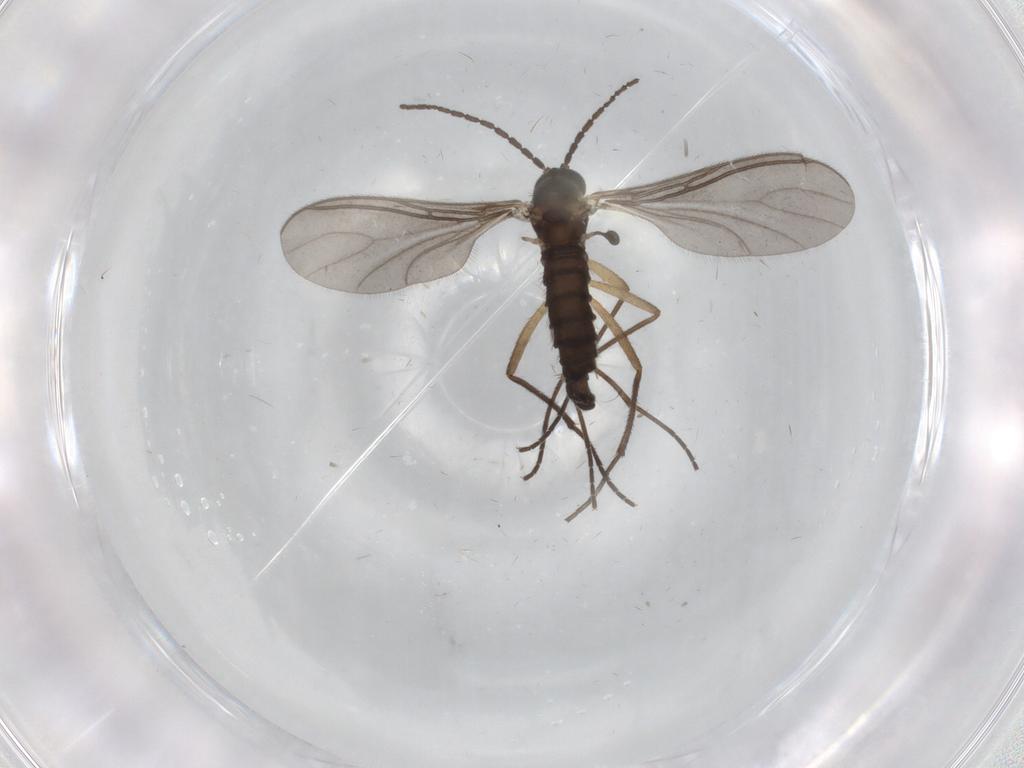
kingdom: Animalia
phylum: Arthropoda
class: Insecta
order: Diptera
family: Sciaridae
